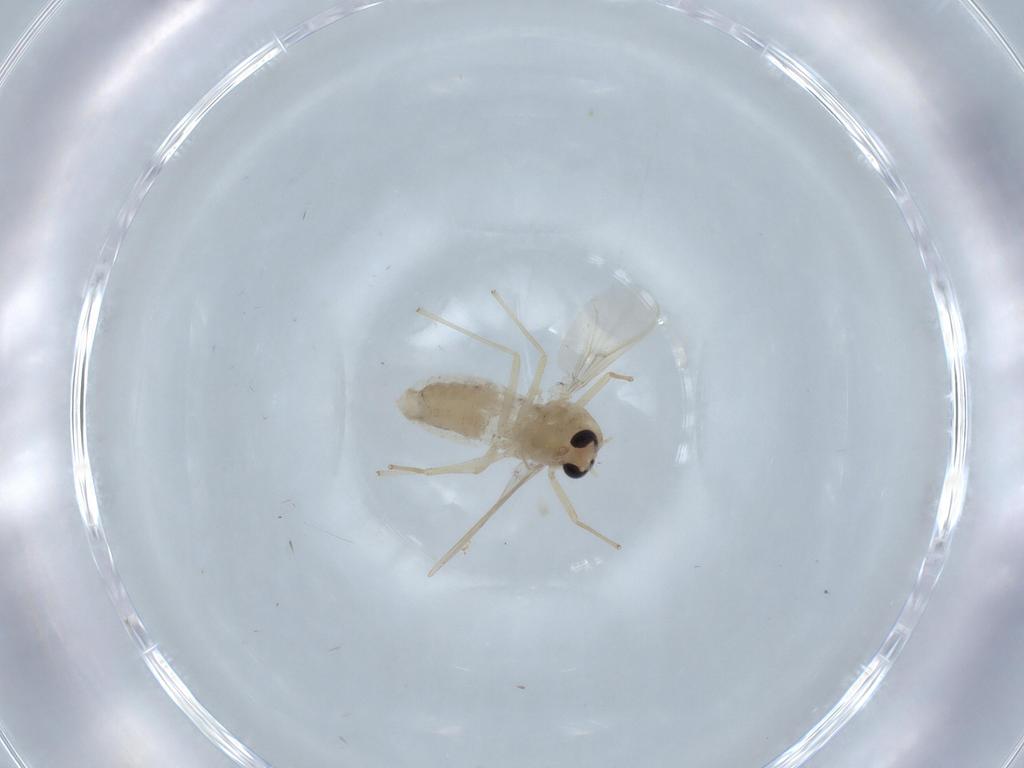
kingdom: Animalia
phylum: Arthropoda
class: Insecta
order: Diptera
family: Chironomidae
